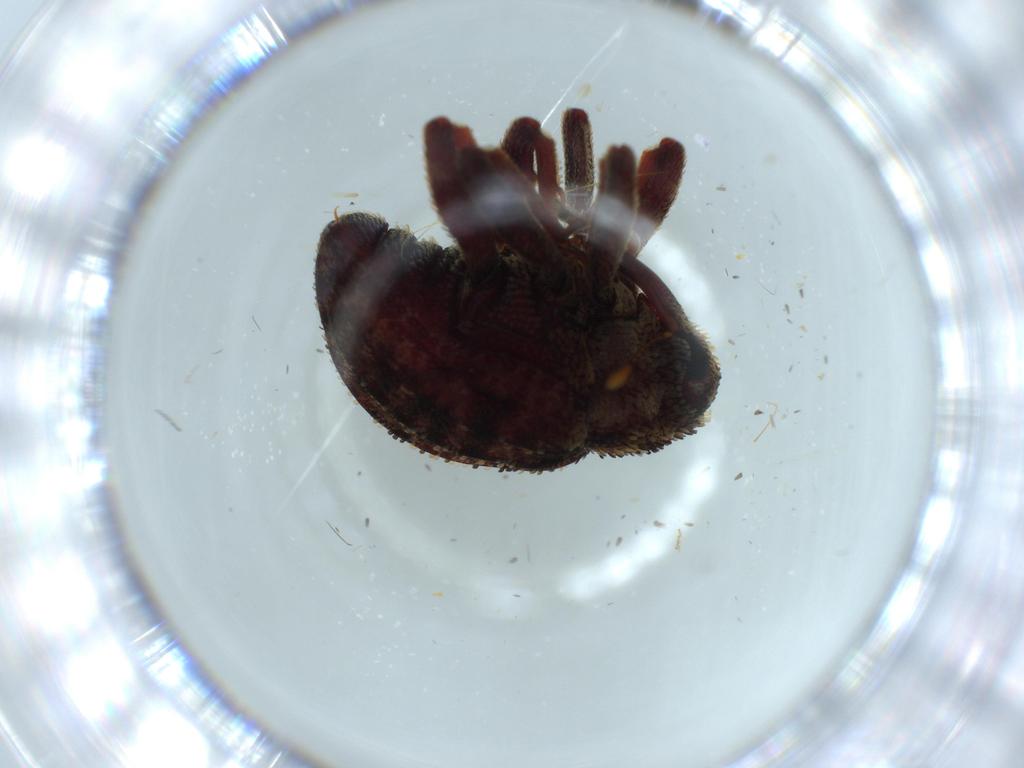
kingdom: Animalia
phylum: Arthropoda
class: Insecta
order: Coleoptera
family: Curculionidae
